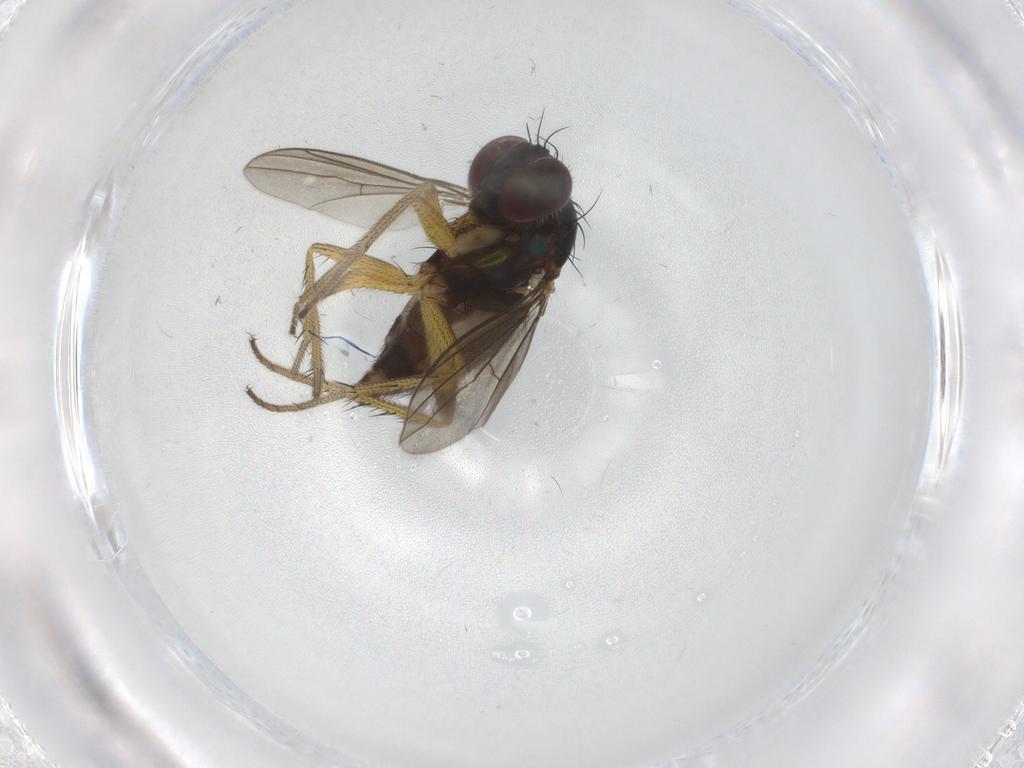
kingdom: Animalia
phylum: Arthropoda
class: Insecta
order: Diptera
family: Dolichopodidae
